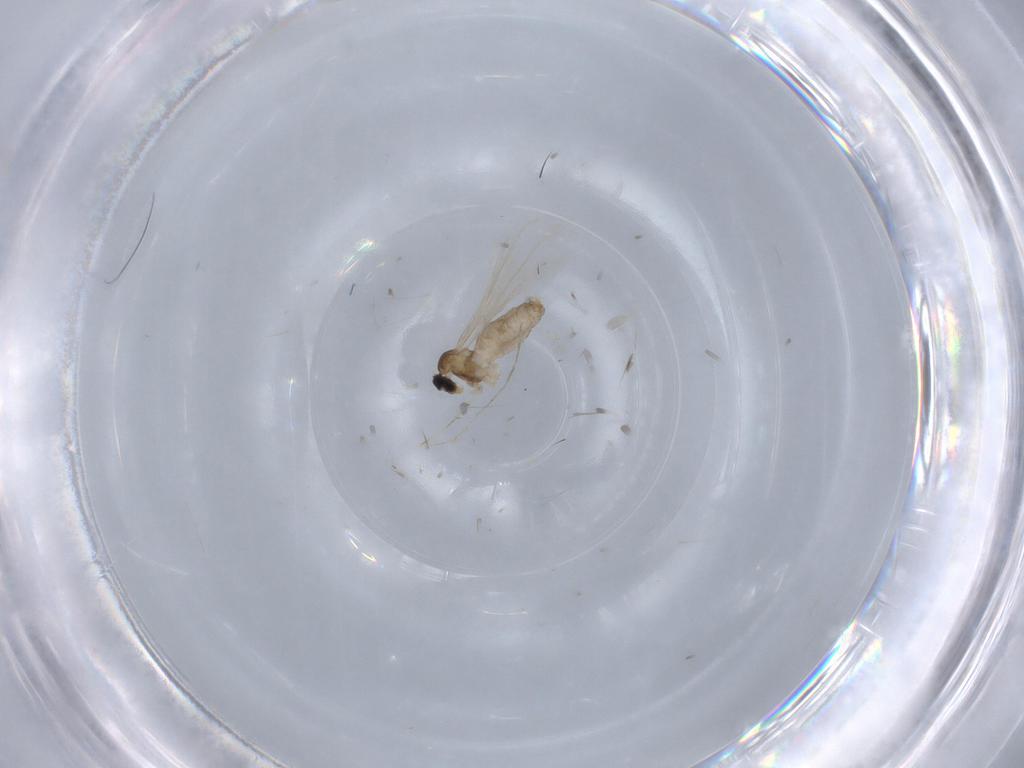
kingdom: Animalia
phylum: Arthropoda
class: Insecta
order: Diptera
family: Cecidomyiidae
